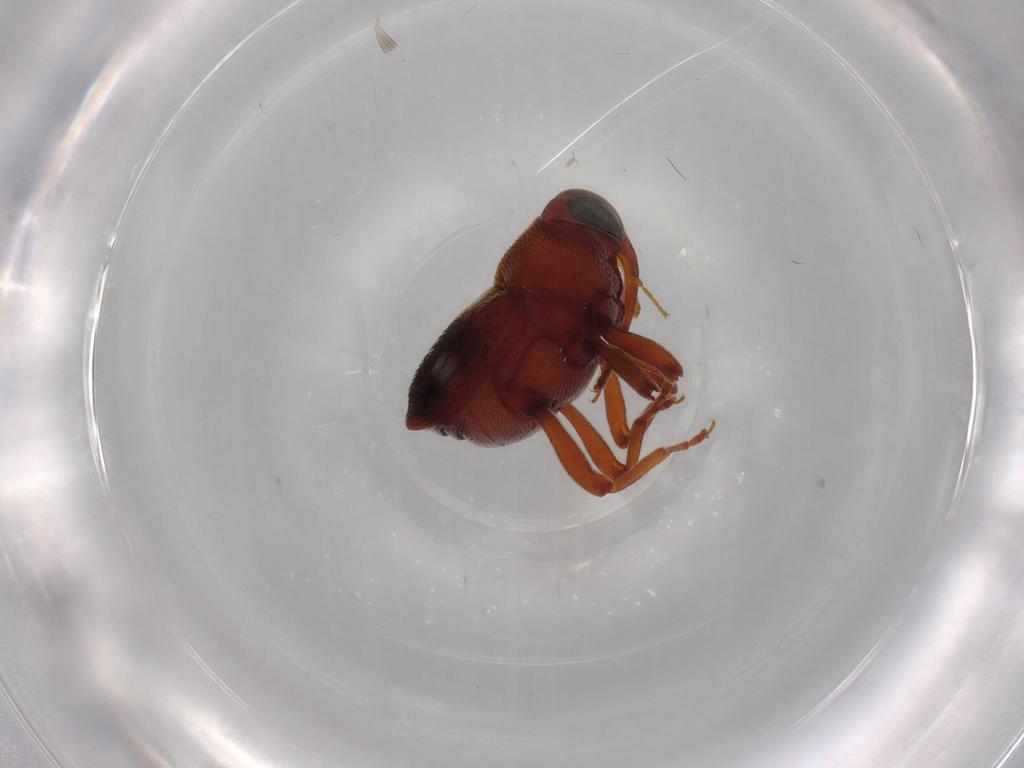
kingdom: Animalia
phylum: Arthropoda
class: Insecta
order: Coleoptera
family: Curculionidae
